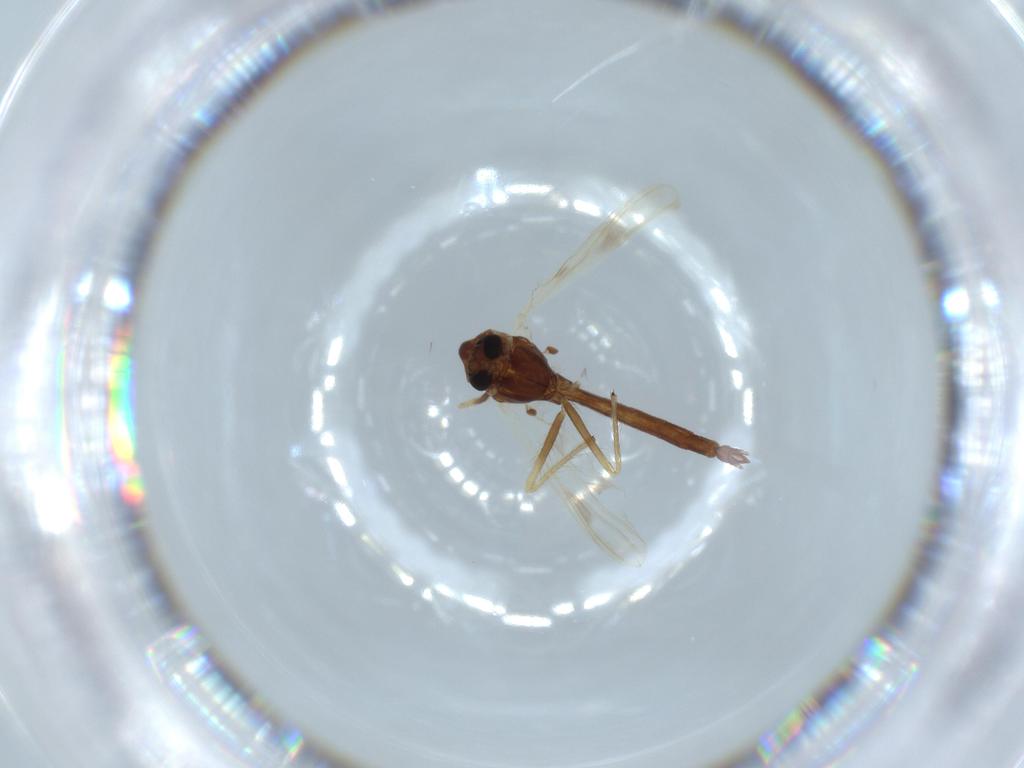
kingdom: Animalia
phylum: Arthropoda
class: Insecta
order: Diptera
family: Chironomidae
